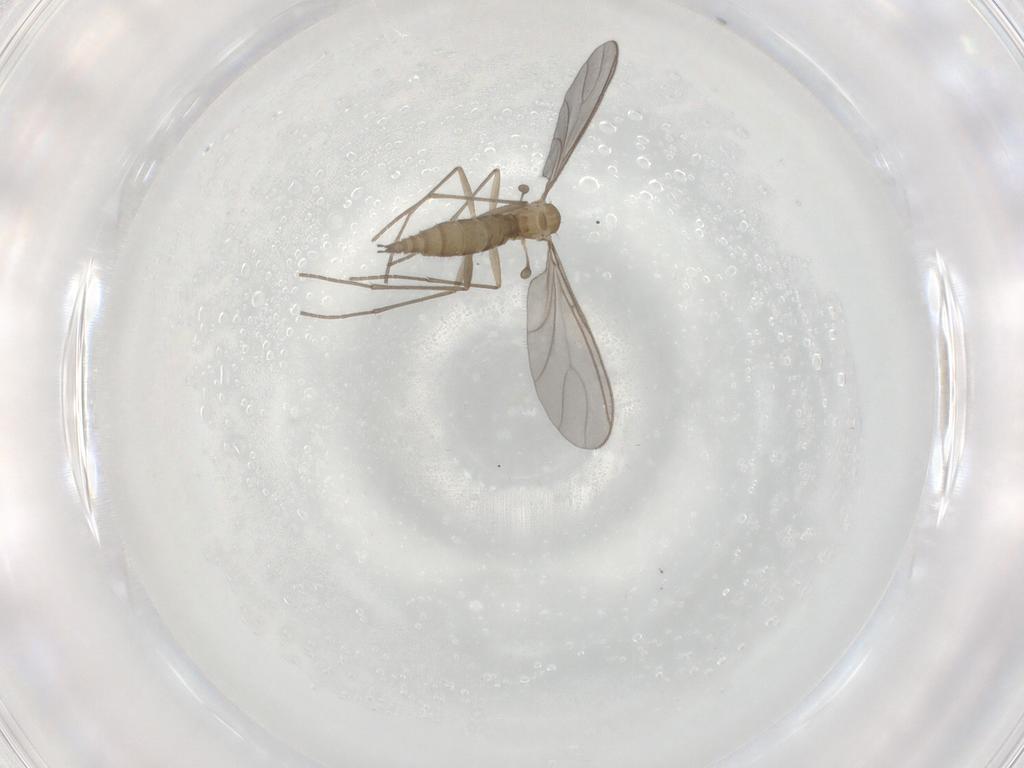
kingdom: Animalia
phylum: Arthropoda
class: Insecta
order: Diptera
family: Sciaridae
